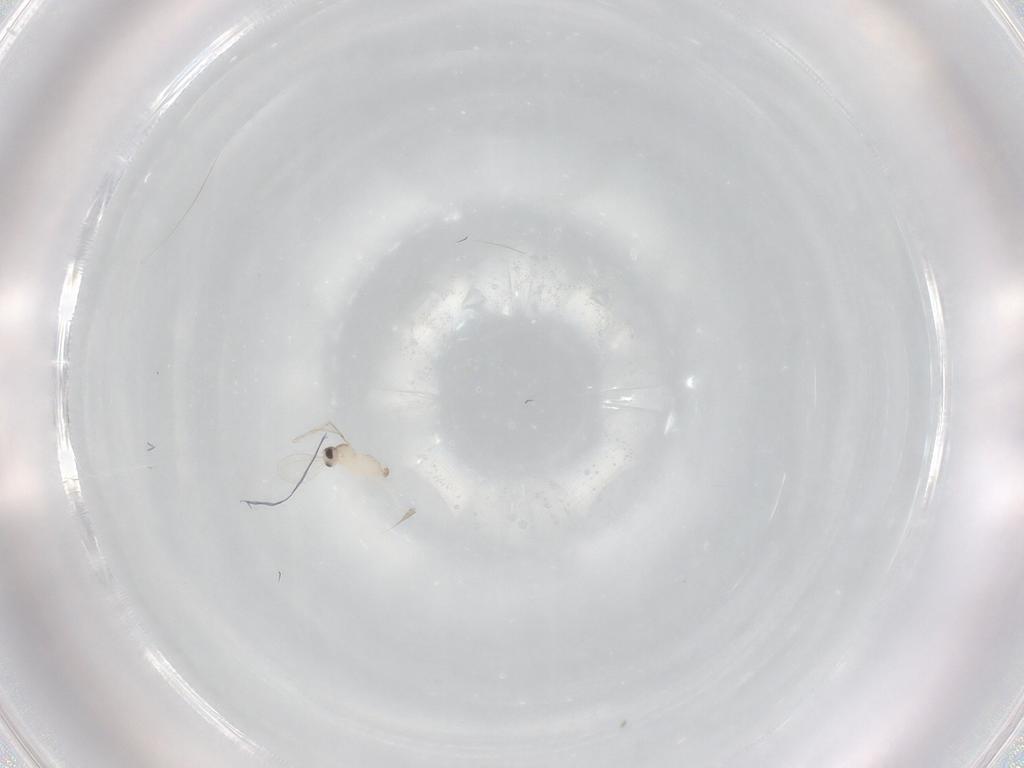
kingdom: Animalia
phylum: Arthropoda
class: Insecta
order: Diptera
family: Cecidomyiidae
